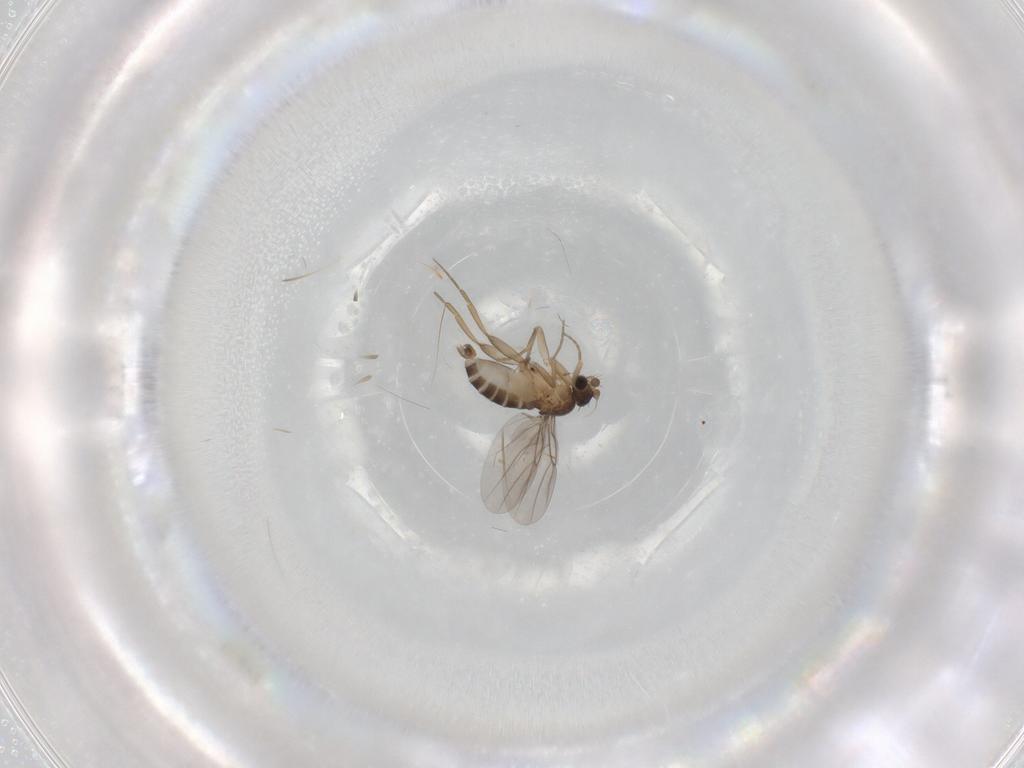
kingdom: Animalia
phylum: Arthropoda
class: Insecta
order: Diptera
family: Phoridae
